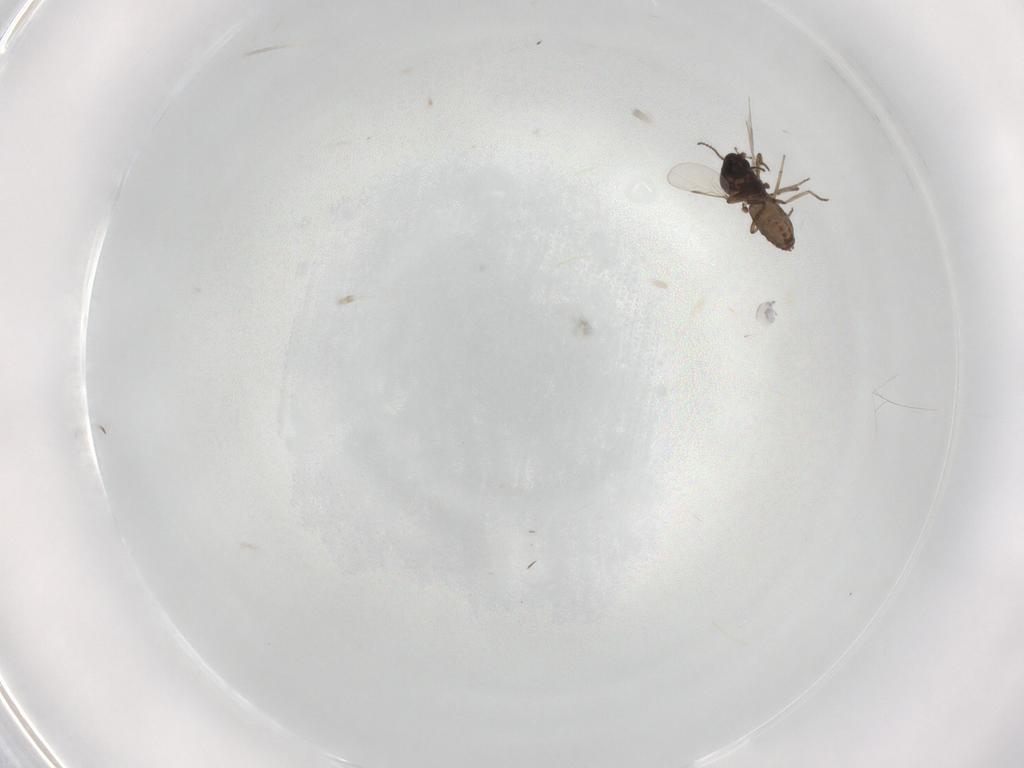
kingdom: Animalia
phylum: Arthropoda
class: Insecta
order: Diptera
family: Ceratopogonidae
